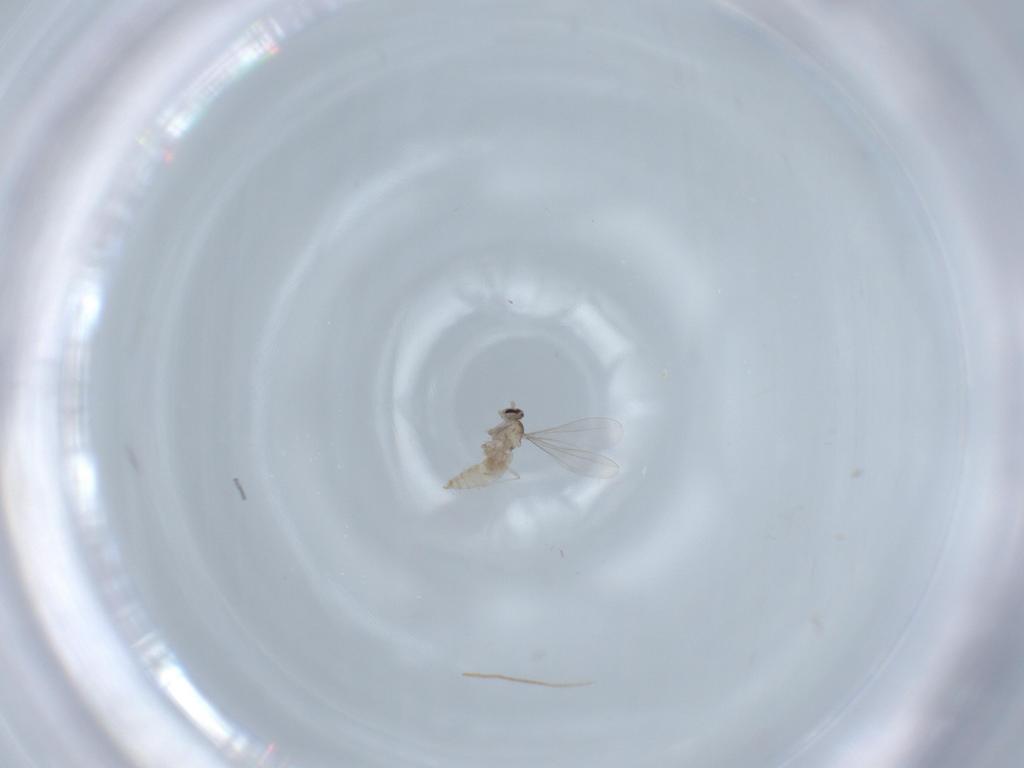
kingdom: Animalia
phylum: Arthropoda
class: Insecta
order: Diptera
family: Cecidomyiidae
